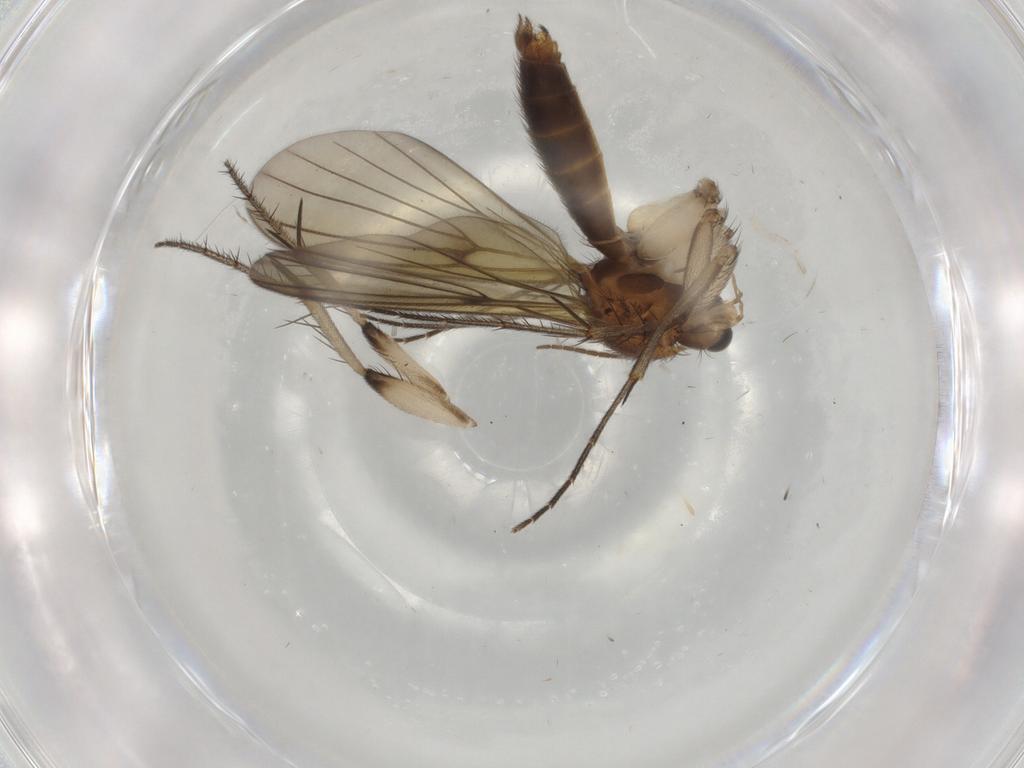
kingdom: Animalia
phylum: Arthropoda
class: Insecta
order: Diptera
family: Mycetophilidae
